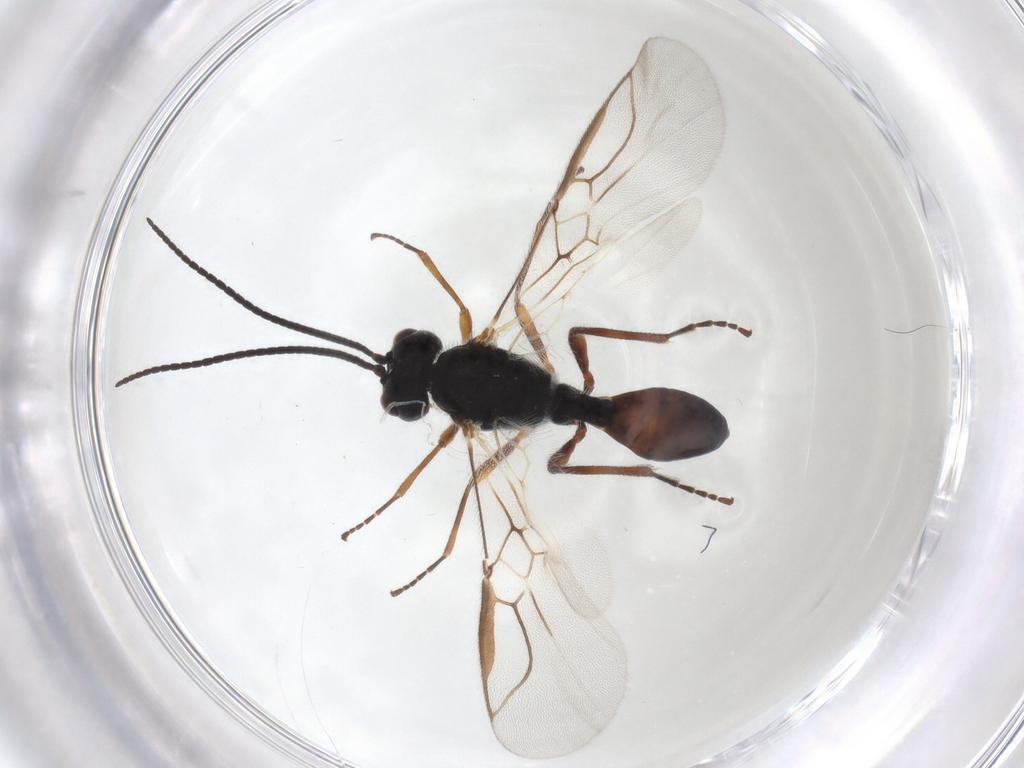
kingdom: Animalia
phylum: Arthropoda
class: Insecta
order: Hymenoptera
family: Braconidae
